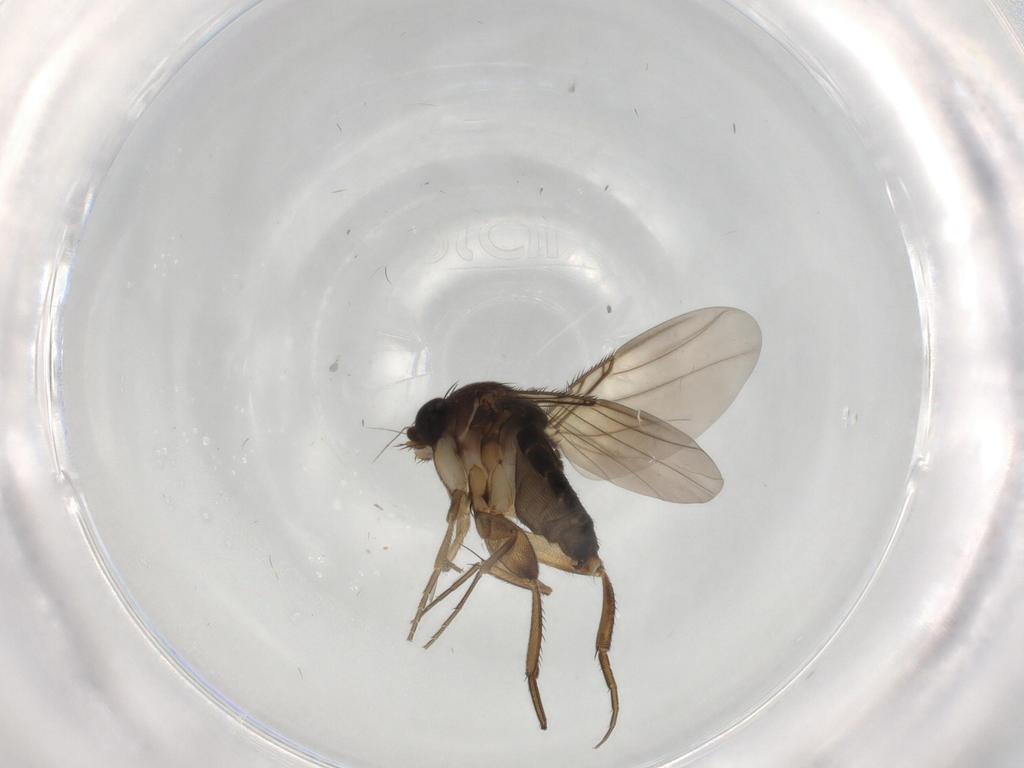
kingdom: Animalia
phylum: Arthropoda
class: Insecta
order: Diptera
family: Phoridae
